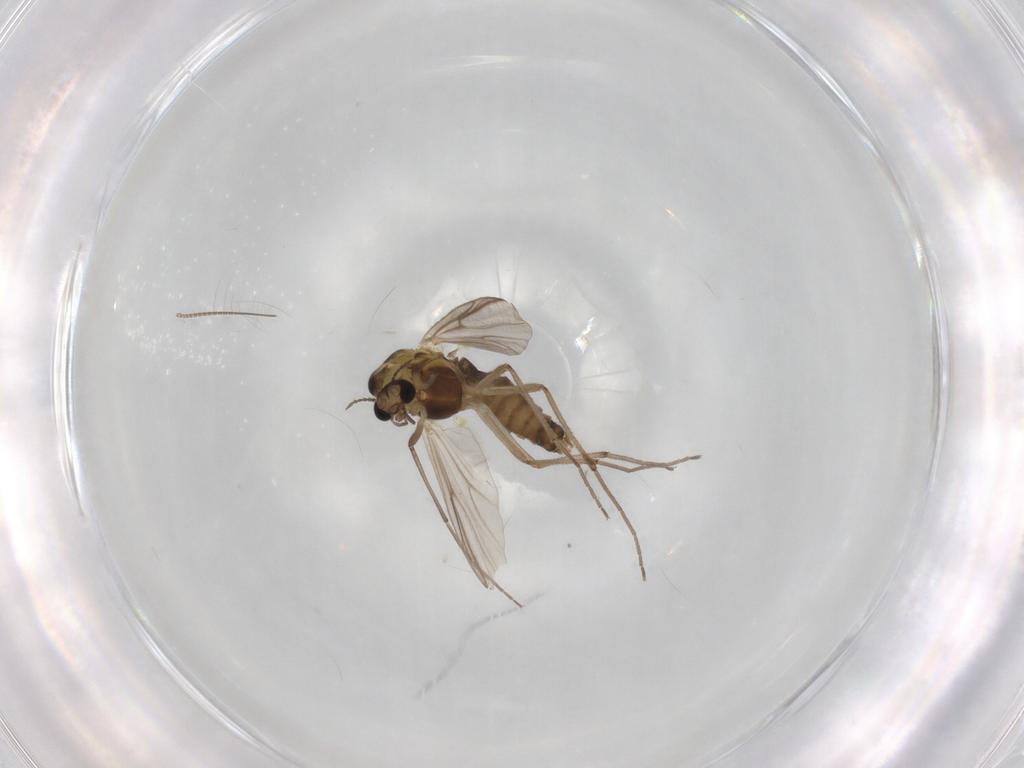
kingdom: Animalia
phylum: Arthropoda
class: Insecta
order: Diptera
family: Chironomidae
